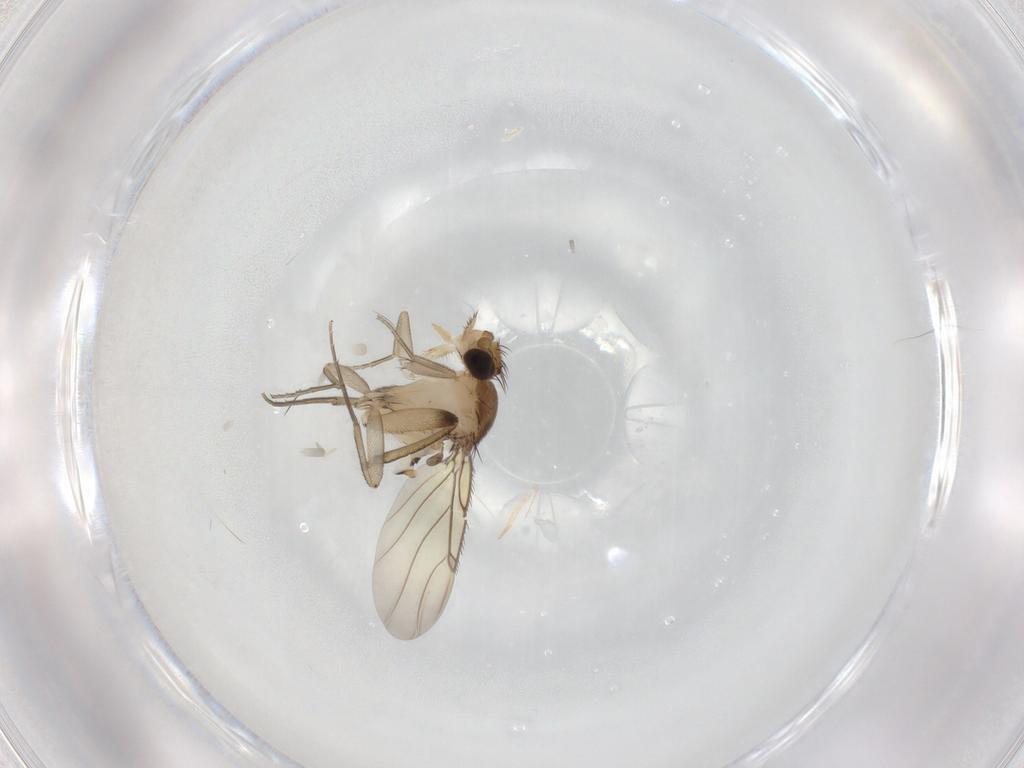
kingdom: Animalia
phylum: Arthropoda
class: Insecta
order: Diptera
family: Phoridae
